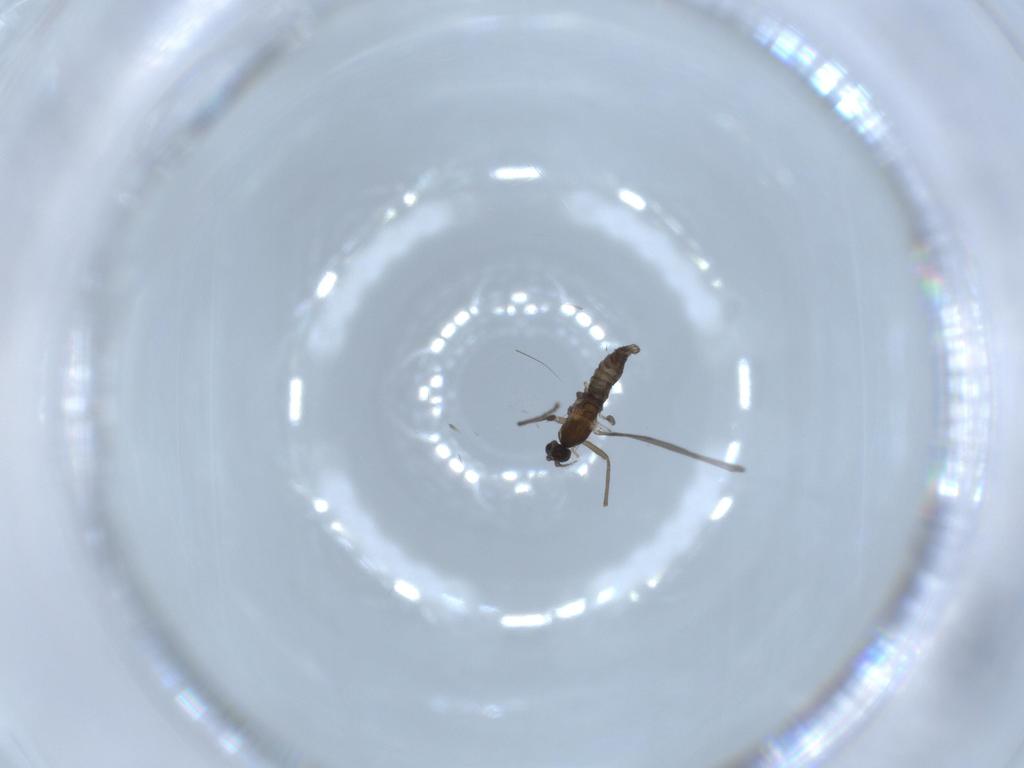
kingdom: Animalia
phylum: Arthropoda
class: Insecta
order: Diptera
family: Cecidomyiidae
